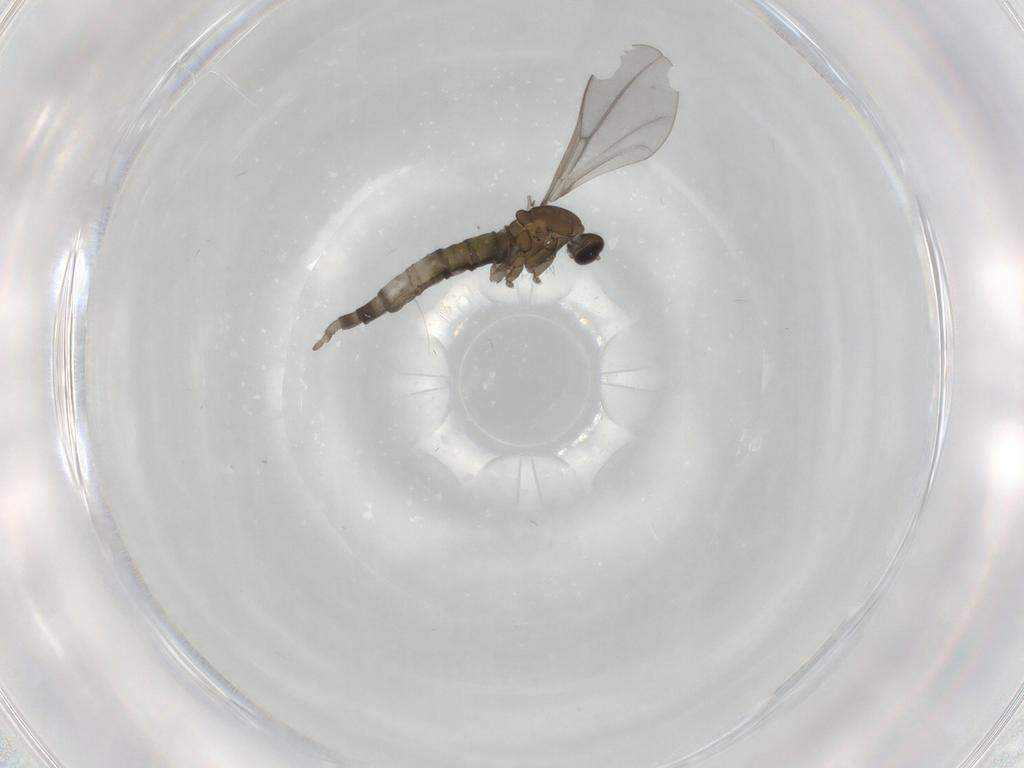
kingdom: Animalia
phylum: Arthropoda
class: Insecta
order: Diptera
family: Cecidomyiidae
